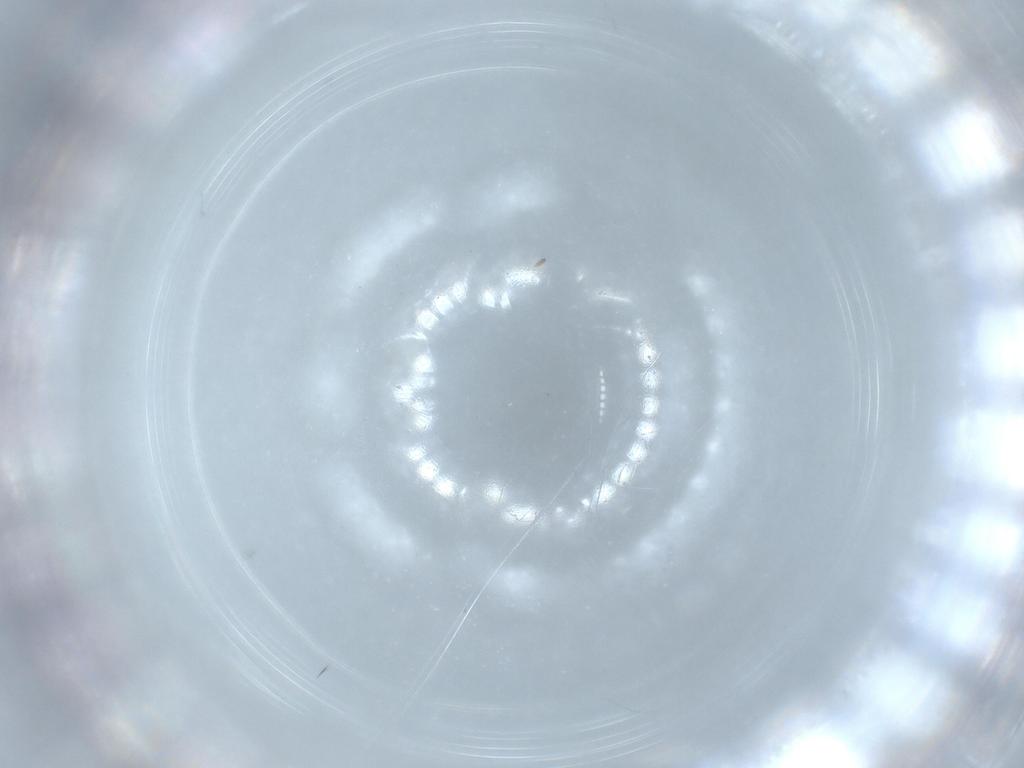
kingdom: Animalia
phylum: Arthropoda
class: Insecta
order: Diptera
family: Cecidomyiidae
